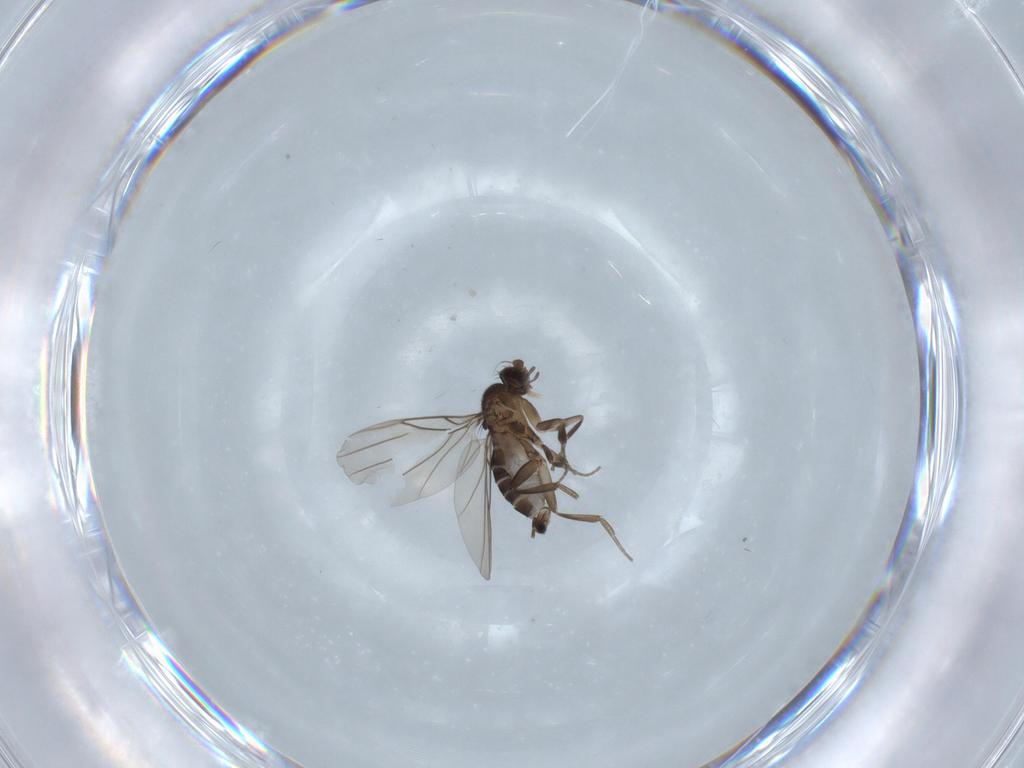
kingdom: Animalia
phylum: Arthropoda
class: Insecta
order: Diptera
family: Phoridae
